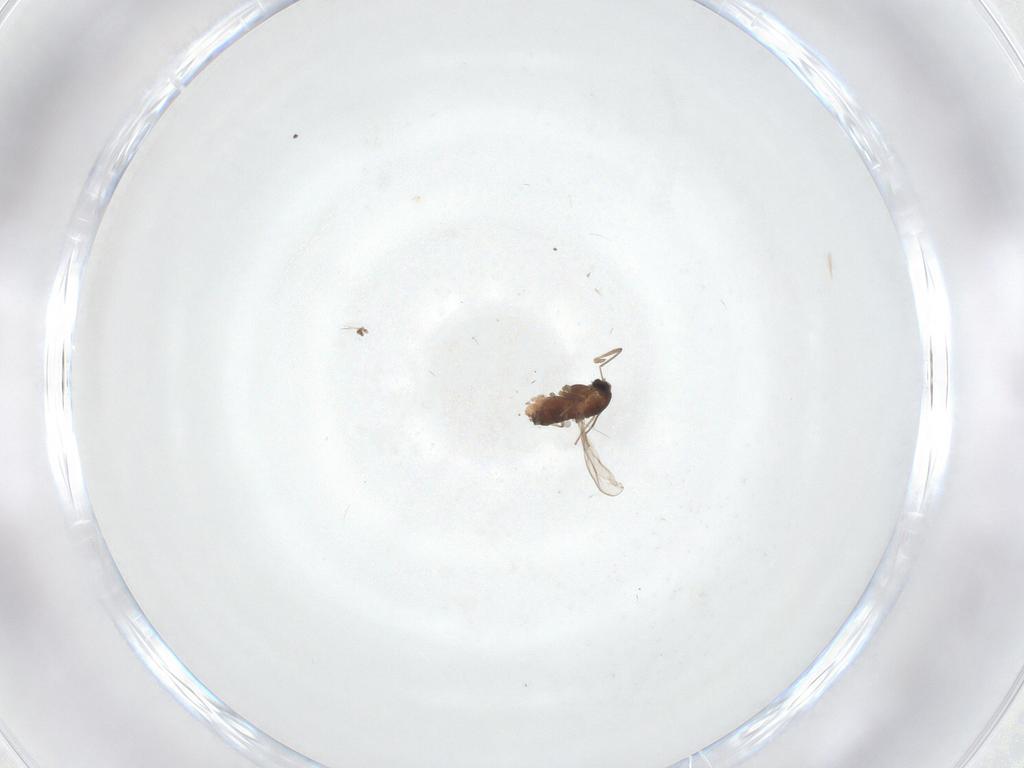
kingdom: Animalia
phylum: Arthropoda
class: Insecta
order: Diptera
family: Chironomidae
